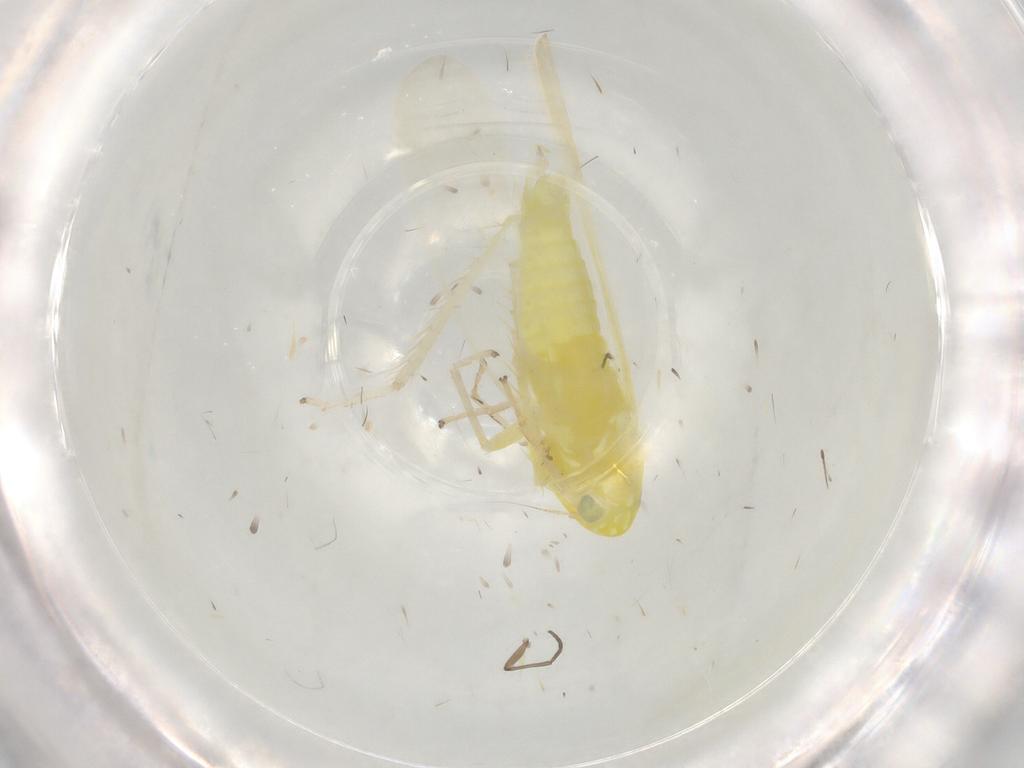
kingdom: Animalia
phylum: Arthropoda
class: Insecta
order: Hemiptera
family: Cicadellidae
